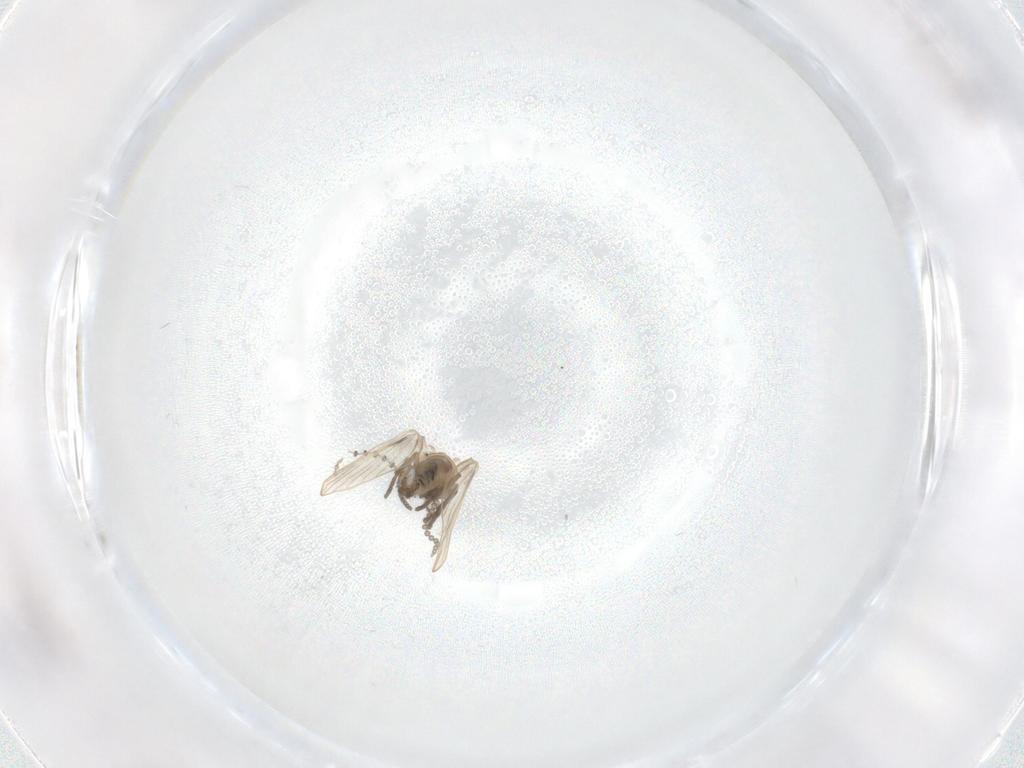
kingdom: Animalia
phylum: Arthropoda
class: Insecta
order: Diptera
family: Psychodidae
